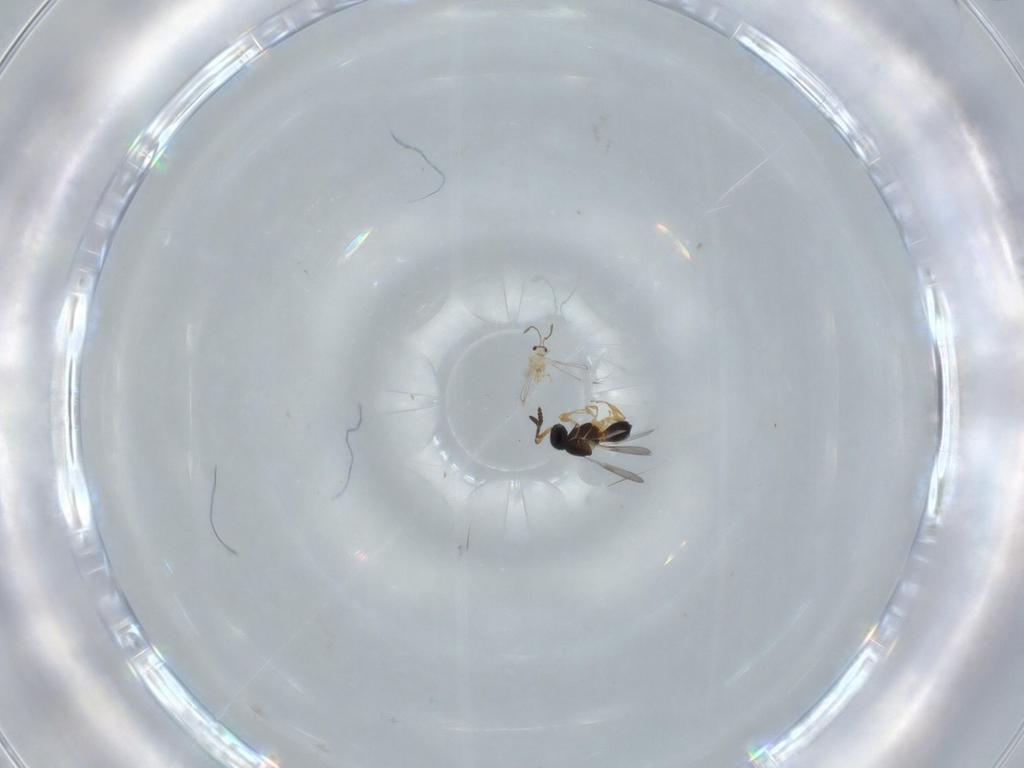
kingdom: Animalia
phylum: Arthropoda
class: Insecta
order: Hymenoptera
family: Scelionidae
